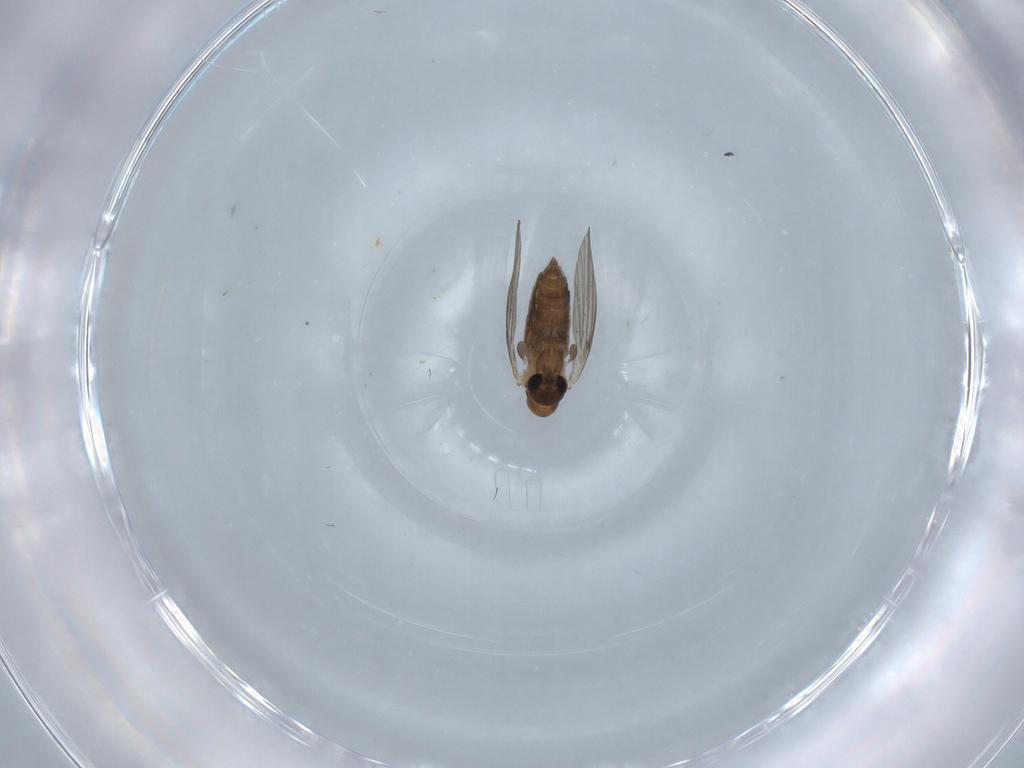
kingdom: Animalia
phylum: Arthropoda
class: Insecta
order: Diptera
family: Psychodidae
